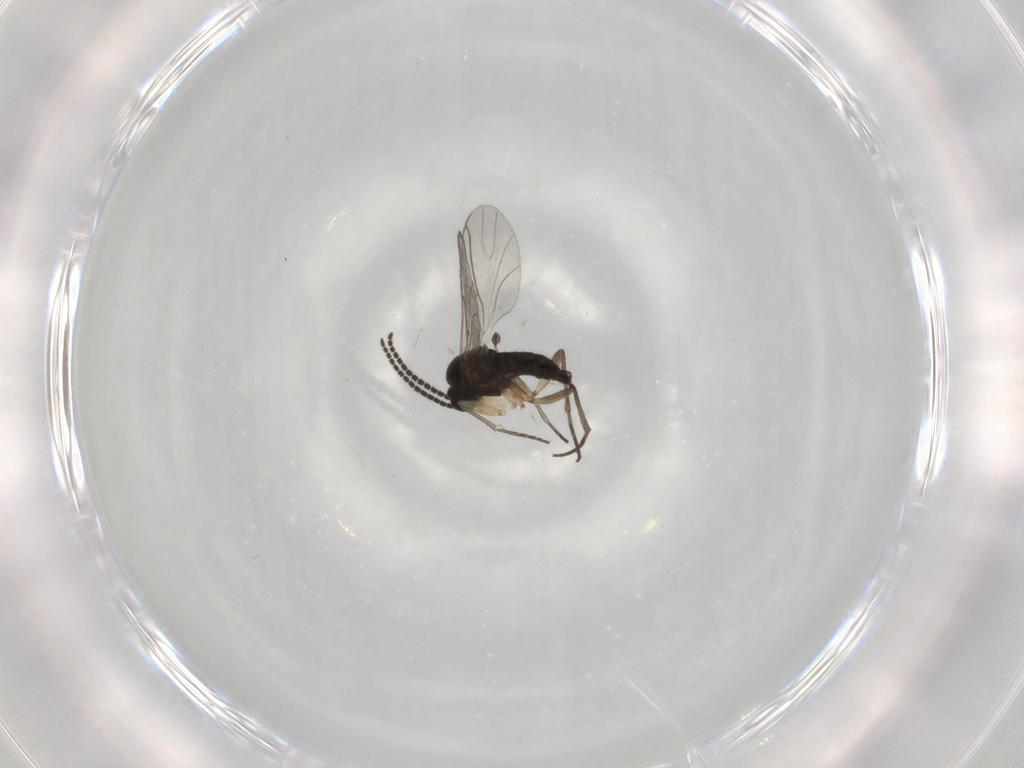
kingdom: Animalia
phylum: Arthropoda
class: Insecta
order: Diptera
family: Sciaridae
